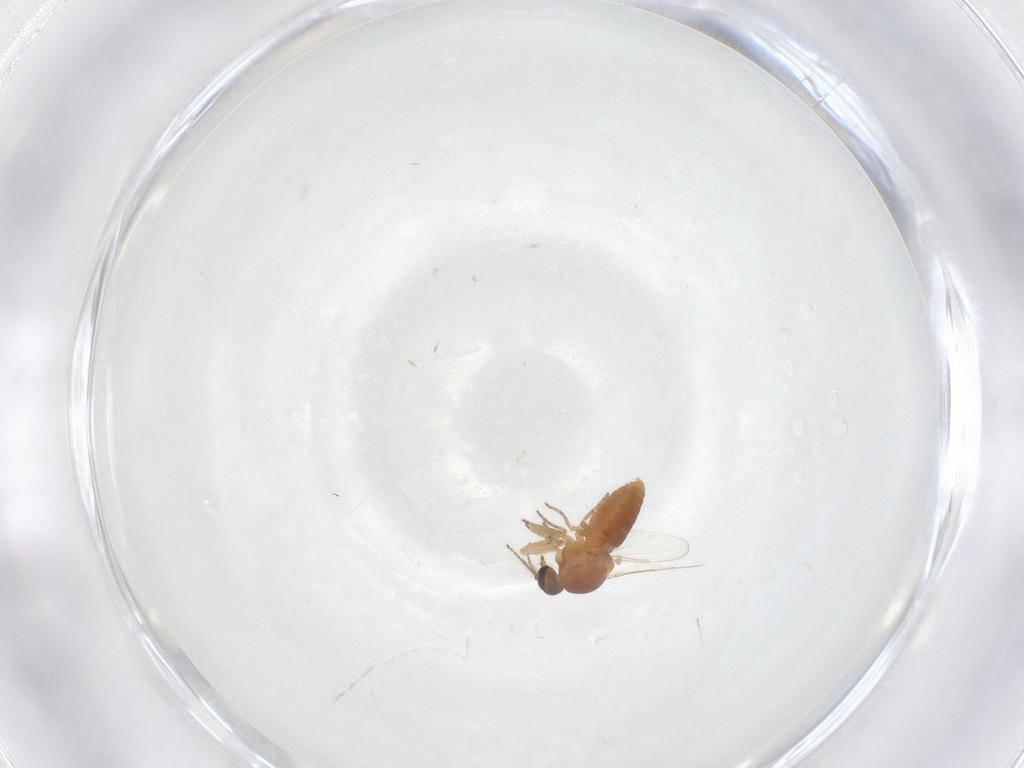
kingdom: Animalia
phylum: Arthropoda
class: Insecta
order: Diptera
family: Ceratopogonidae
